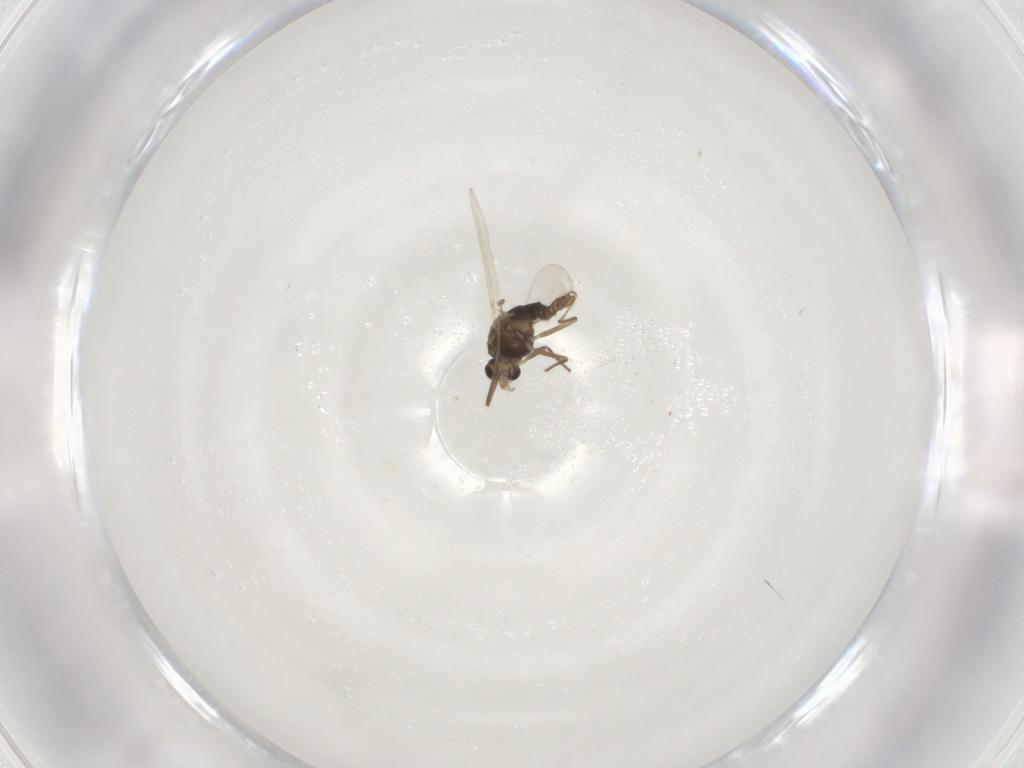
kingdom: Animalia
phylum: Arthropoda
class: Insecta
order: Diptera
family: Chironomidae
